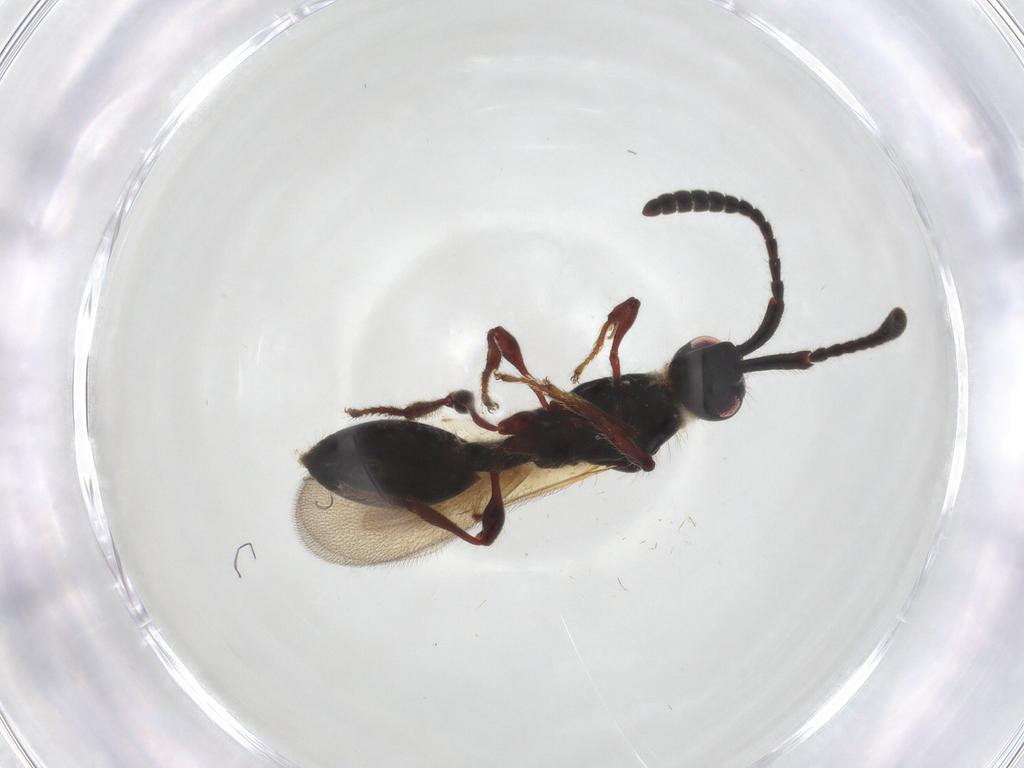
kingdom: Animalia
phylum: Arthropoda
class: Insecta
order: Hymenoptera
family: Diapriidae
